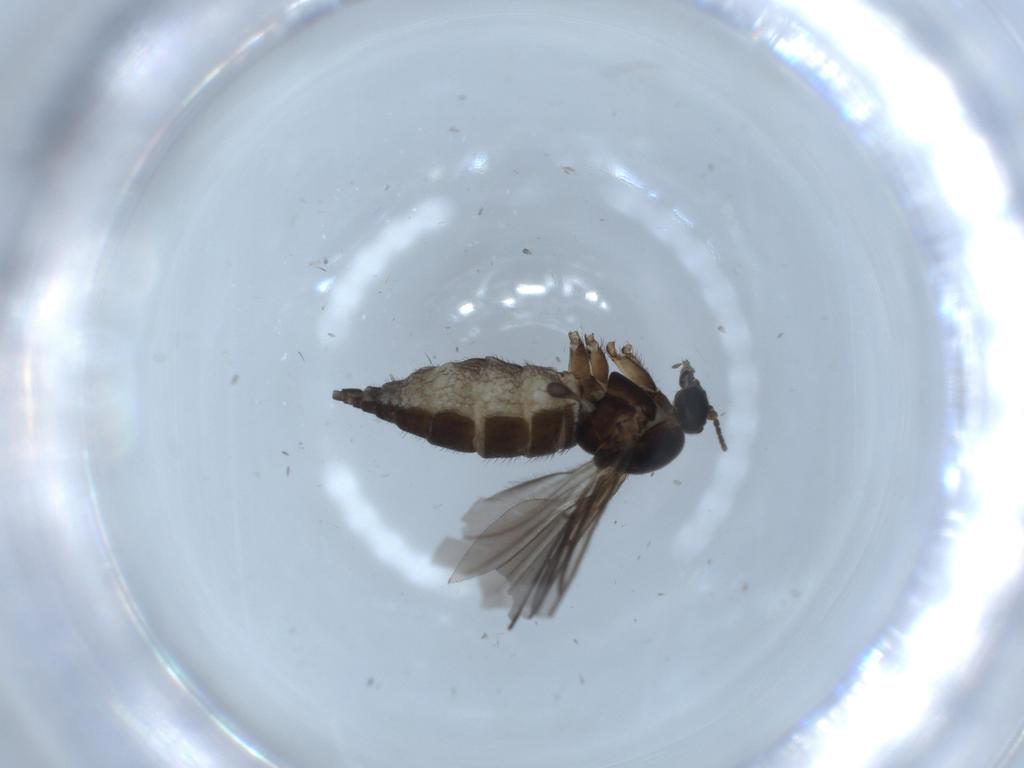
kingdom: Animalia
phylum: Arthropoda
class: Insecta
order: Diptera
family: Sciaridae
